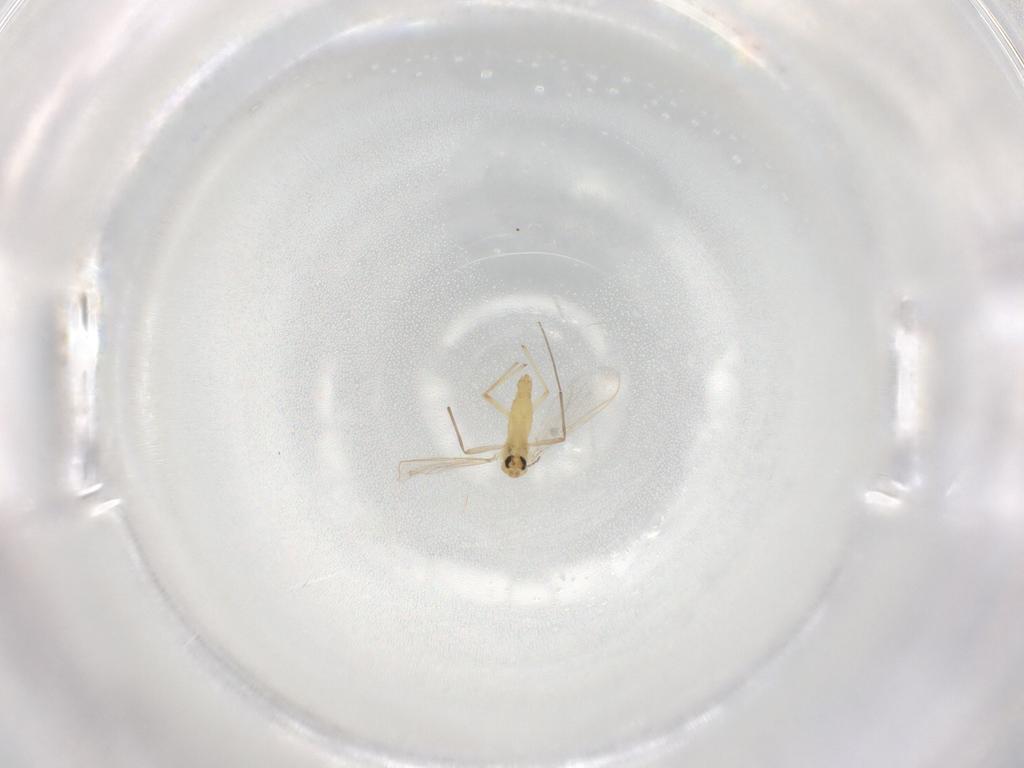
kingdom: Animalia
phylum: Arthropoda
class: Insecta
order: Diptera
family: Chironomidae
